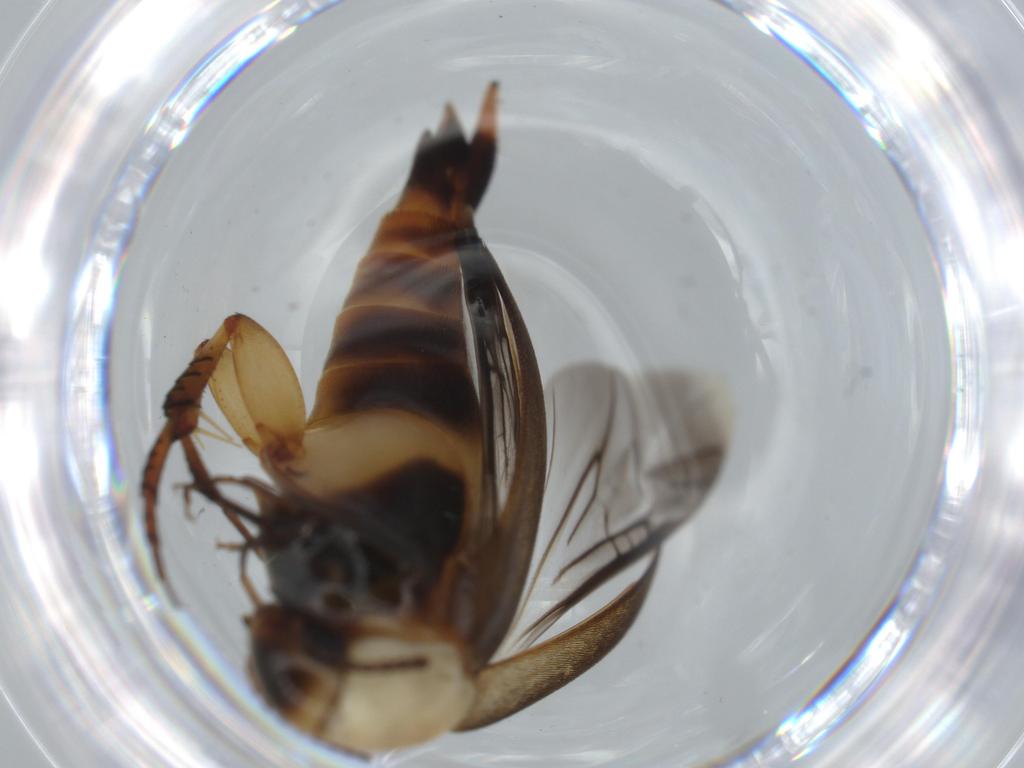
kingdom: Animalia
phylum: Arthropoda
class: Insecta
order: Coleoptera
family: Mordellidae
